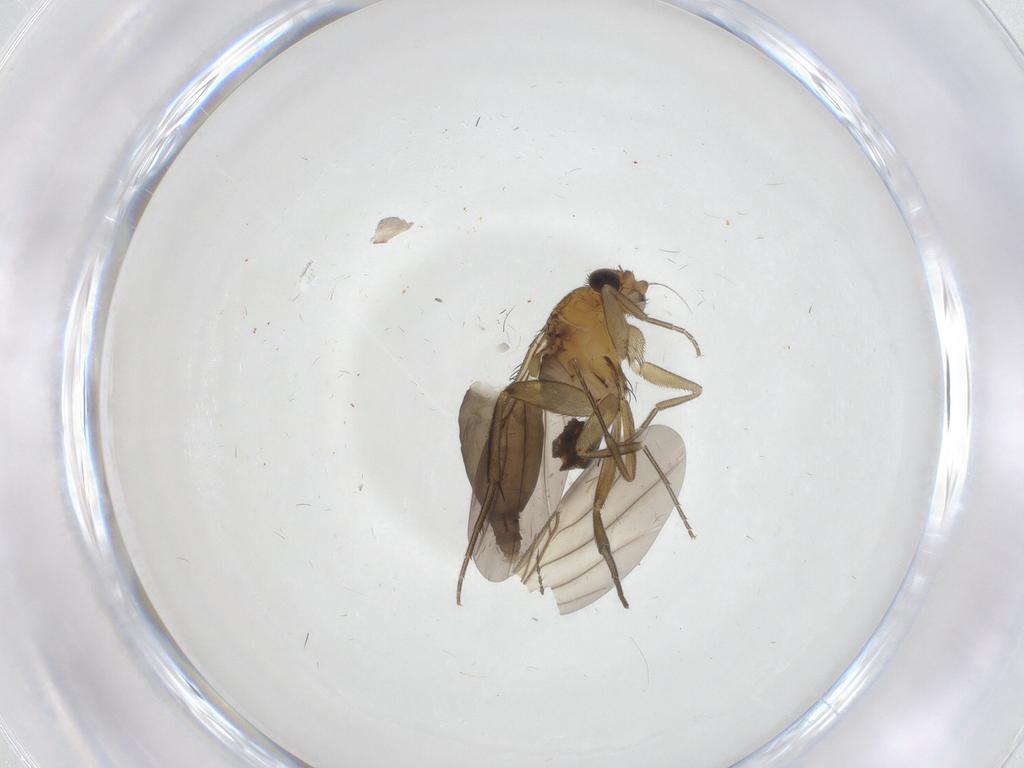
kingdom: Animalia
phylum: Arthropoda
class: Insecta
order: Diptera
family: Phoridae
